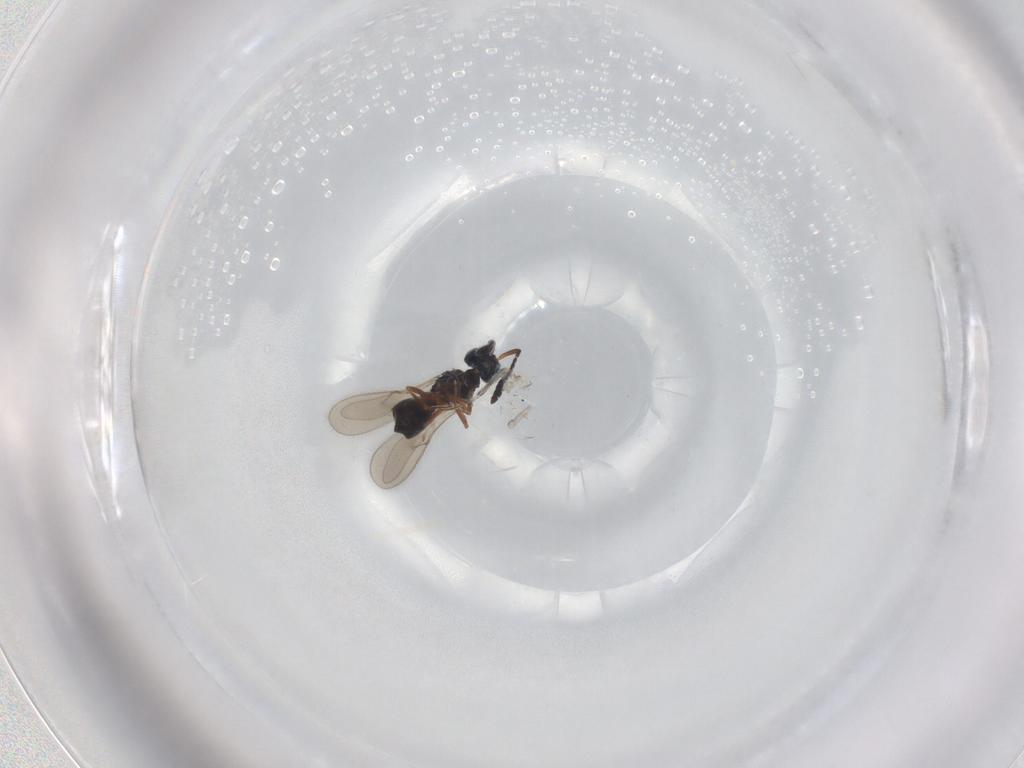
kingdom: Animalia
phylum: Arthropoda
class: Insecta
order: Hymenoptera
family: Scelionidae
